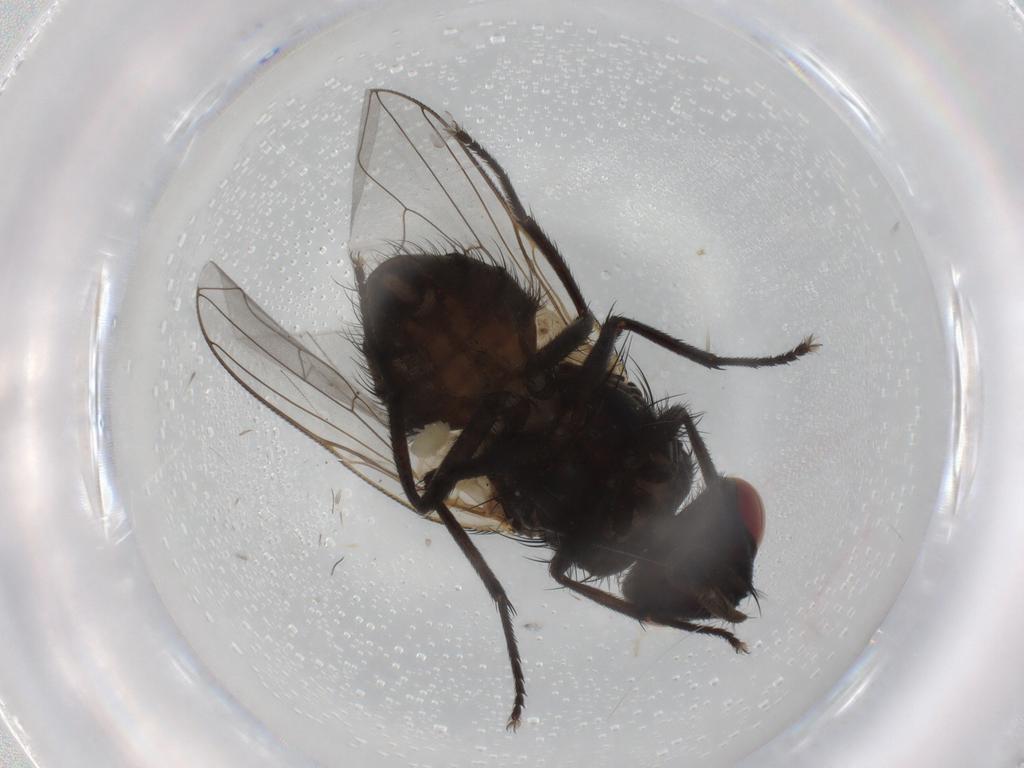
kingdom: Animalia
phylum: Arthropoda
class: Insecta
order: Diptera
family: Muscidae
